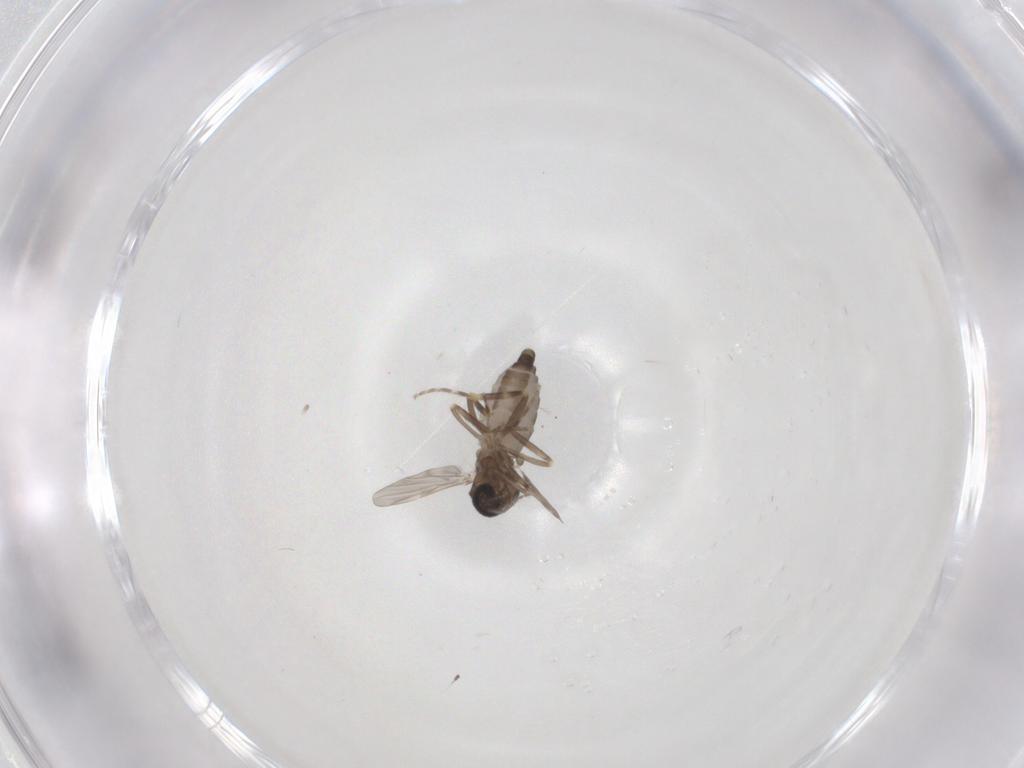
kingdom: Animalia
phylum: Arthropoda
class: Insecta
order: Diptera
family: Ceratopogonidae
